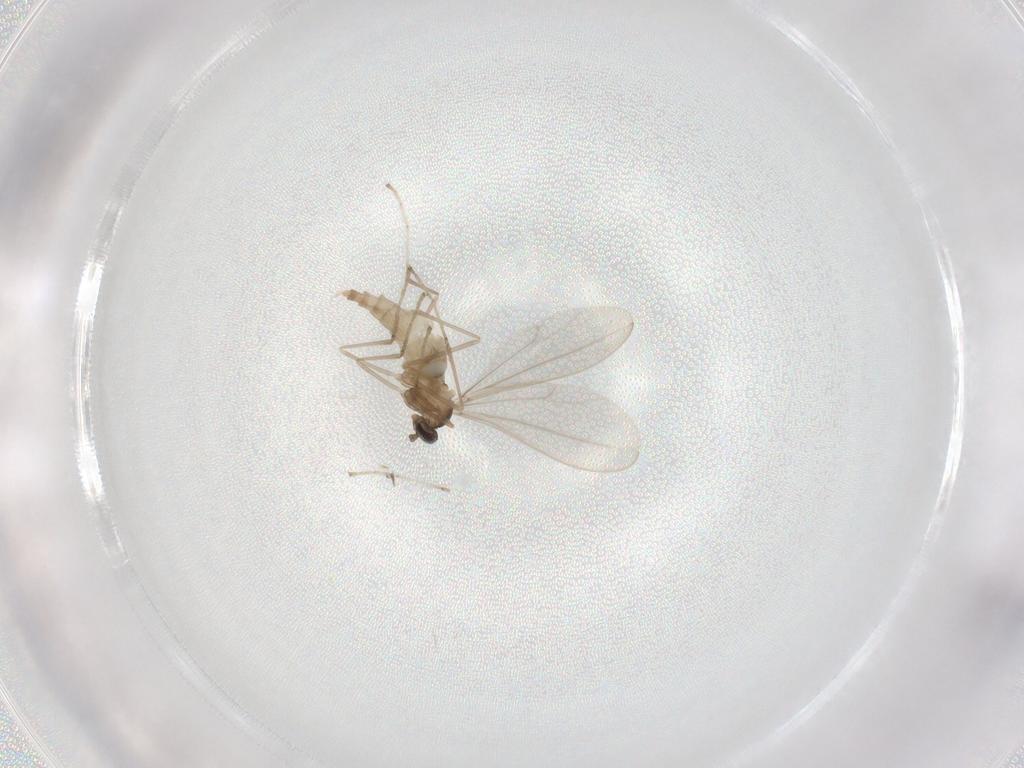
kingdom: Animalia
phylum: Arthropoda
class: Insecta
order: Diptera
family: Cecidomyiidae
